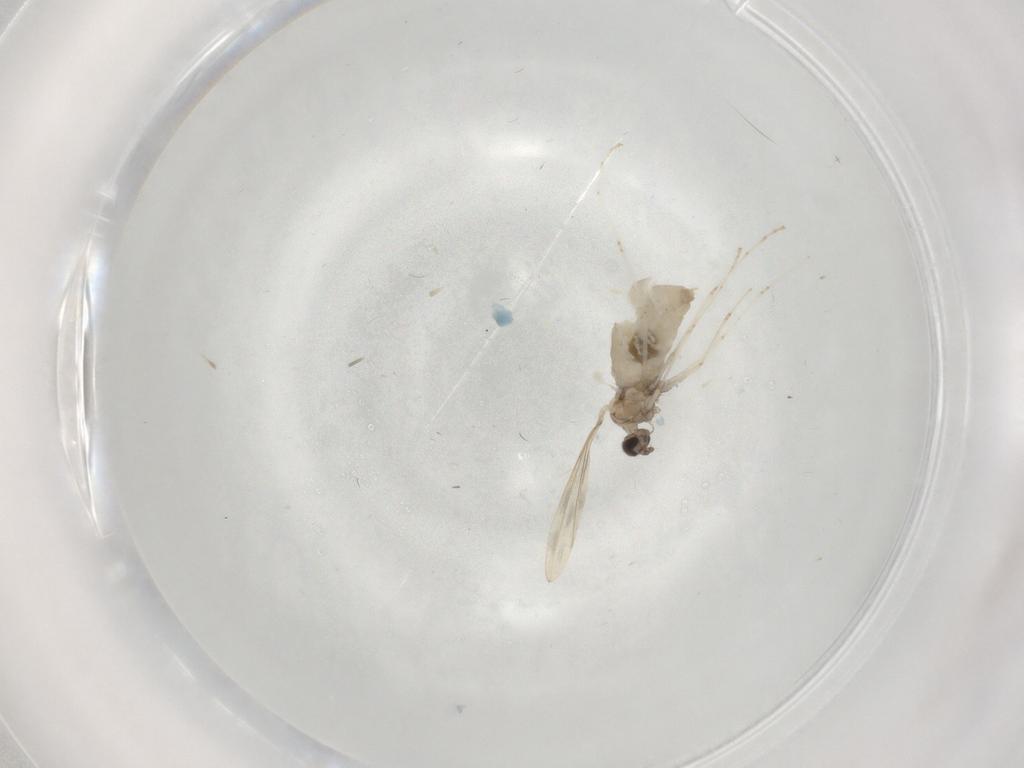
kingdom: Animalia
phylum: Arthropoda
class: Insecta
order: Diptera
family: Cecidomyiidae
